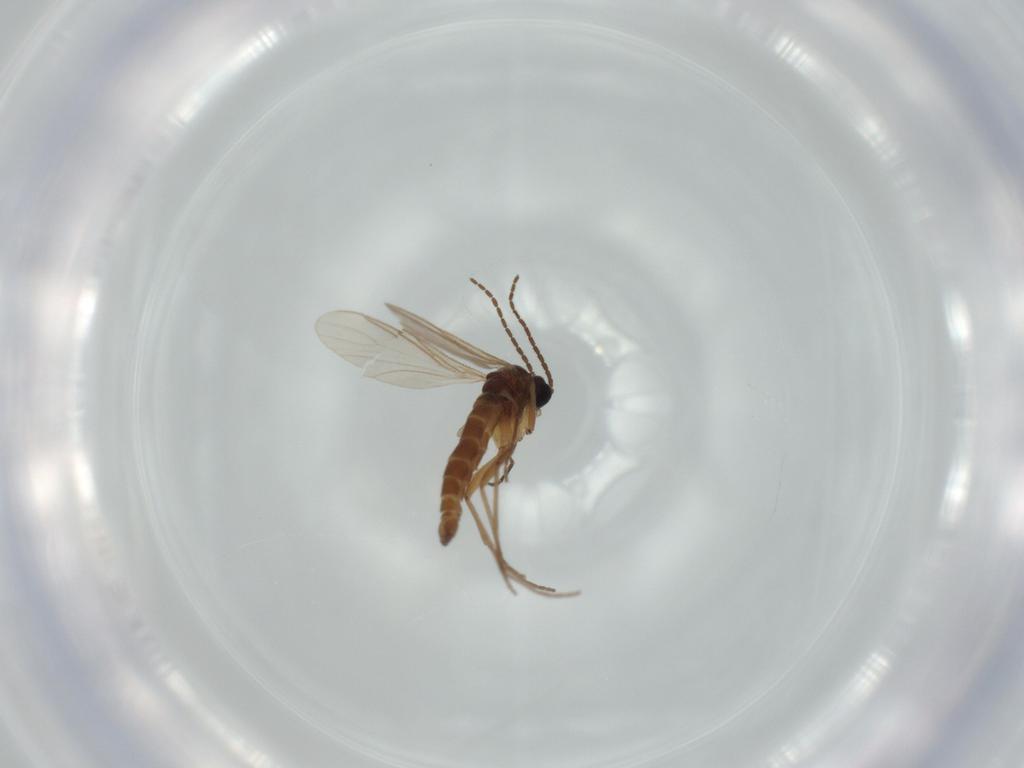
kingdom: Animalia
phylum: Arthropoda
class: Insecta
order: Diptera
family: Sciaridae
